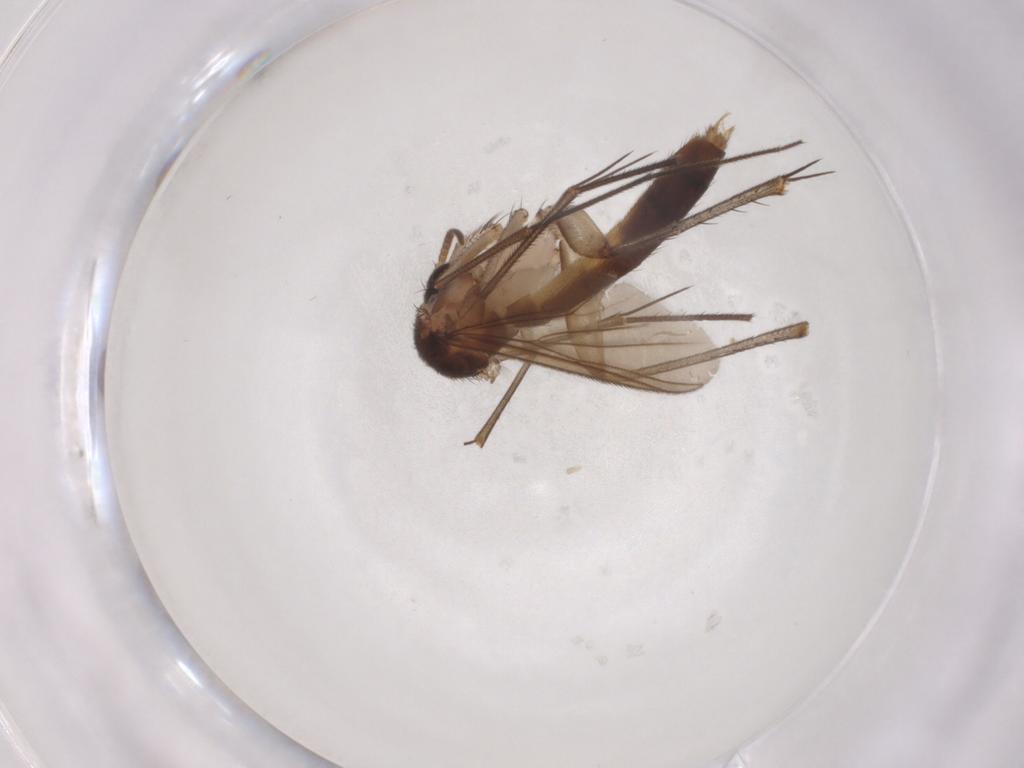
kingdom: Animalia
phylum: Arthropoda
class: Insecta
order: Diptera
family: Mycetophilidae
